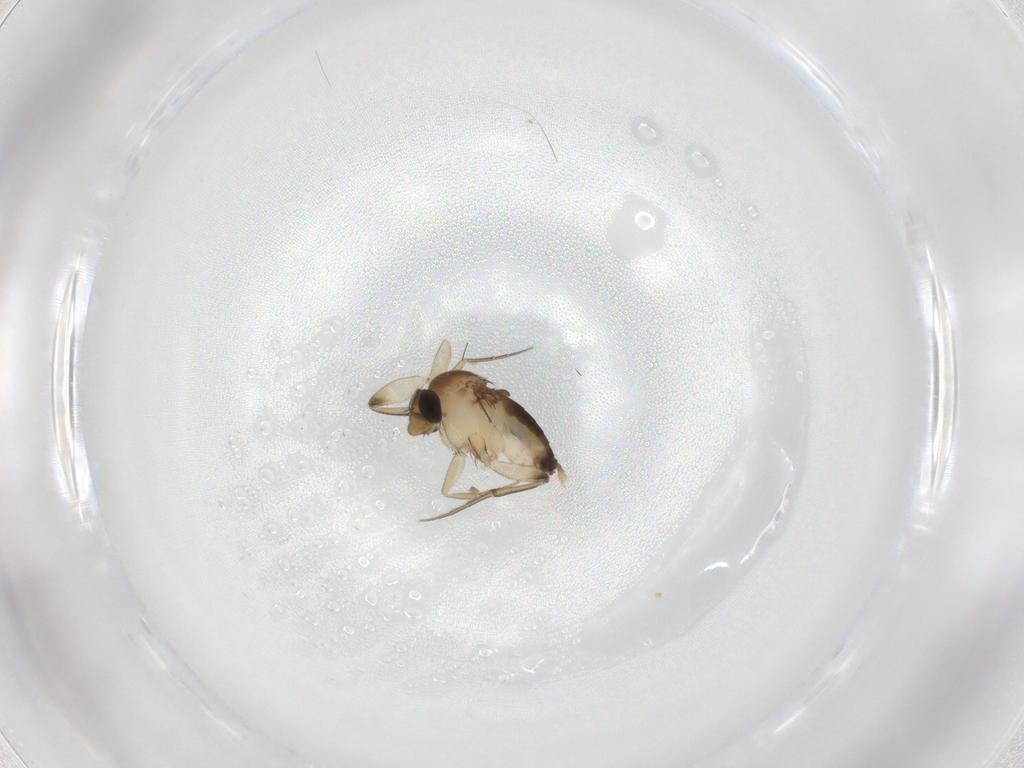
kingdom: Animalia
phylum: Arthropoda
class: Insecta
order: Diptera
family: Phoridae
